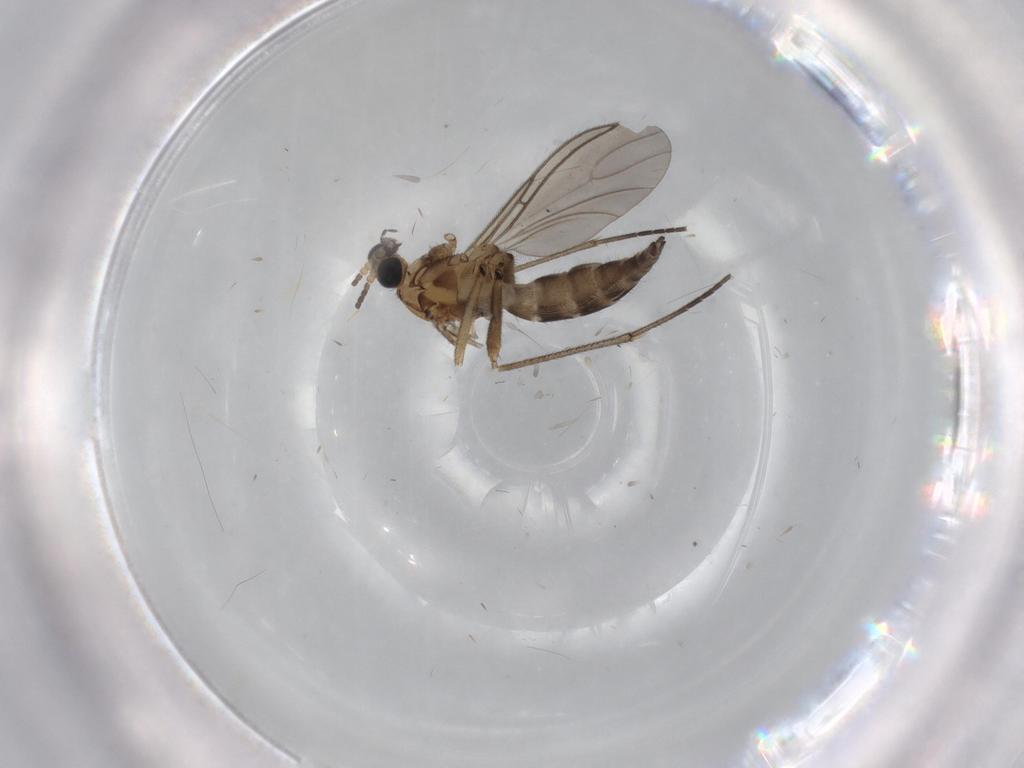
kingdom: Animalia
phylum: Arthropoda
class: Insecta
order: Diptera
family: Sciaridae
